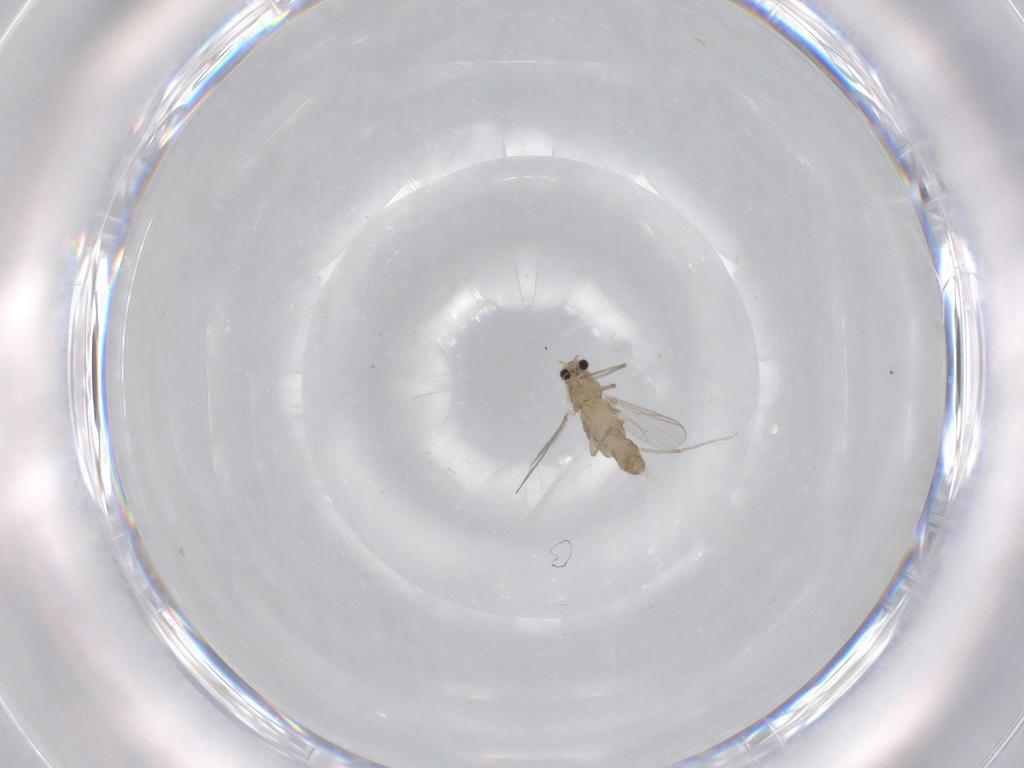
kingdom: Animalia
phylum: Arthropoda
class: Insecta
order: Diptera
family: Chironomidae
